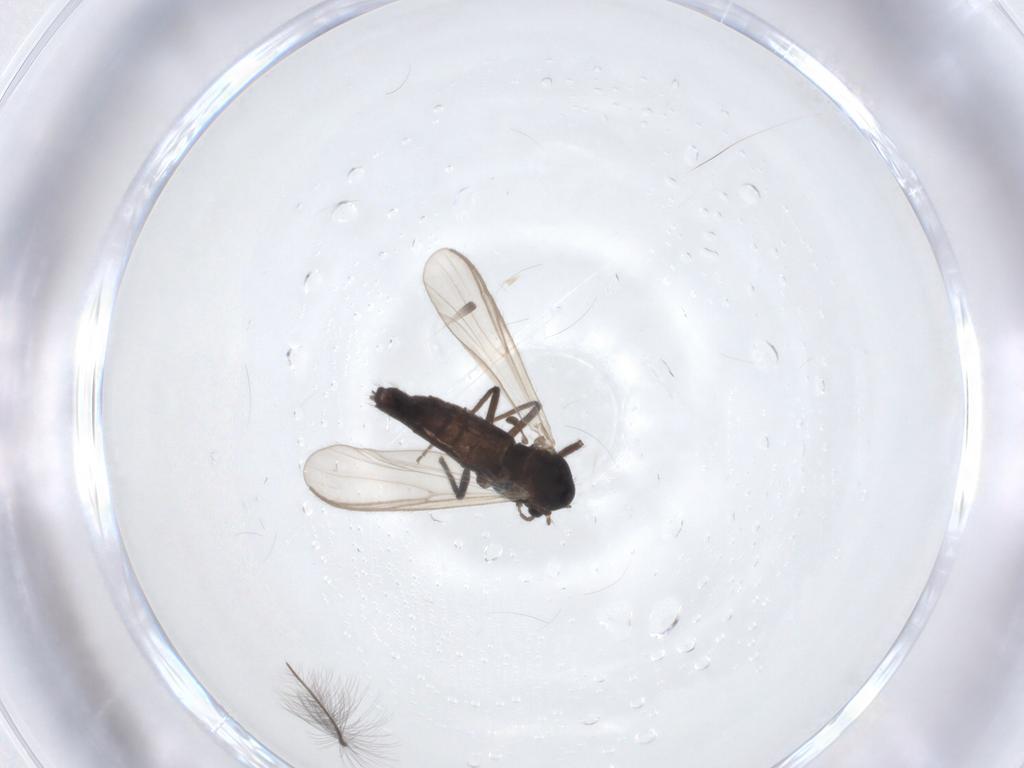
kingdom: Animalia
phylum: Arthropoda
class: Insecta
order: Diptera
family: Chironomidae
